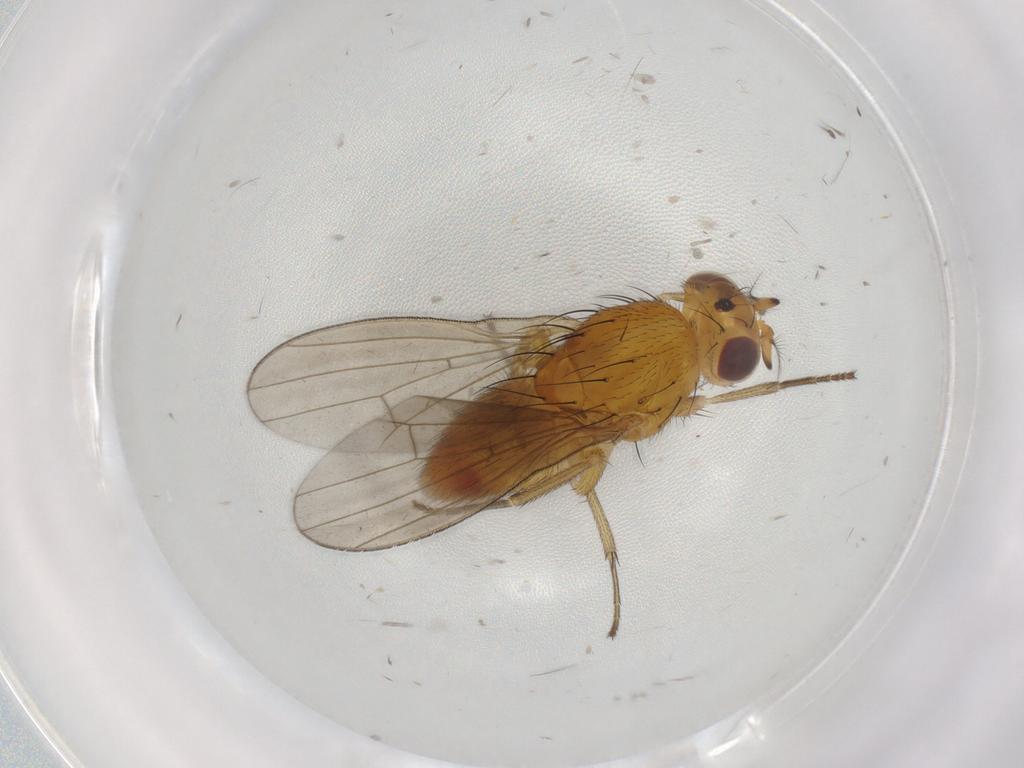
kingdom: Animalia
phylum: Arthropoda
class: Insecta
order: Diptera
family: Lauxaniidae
